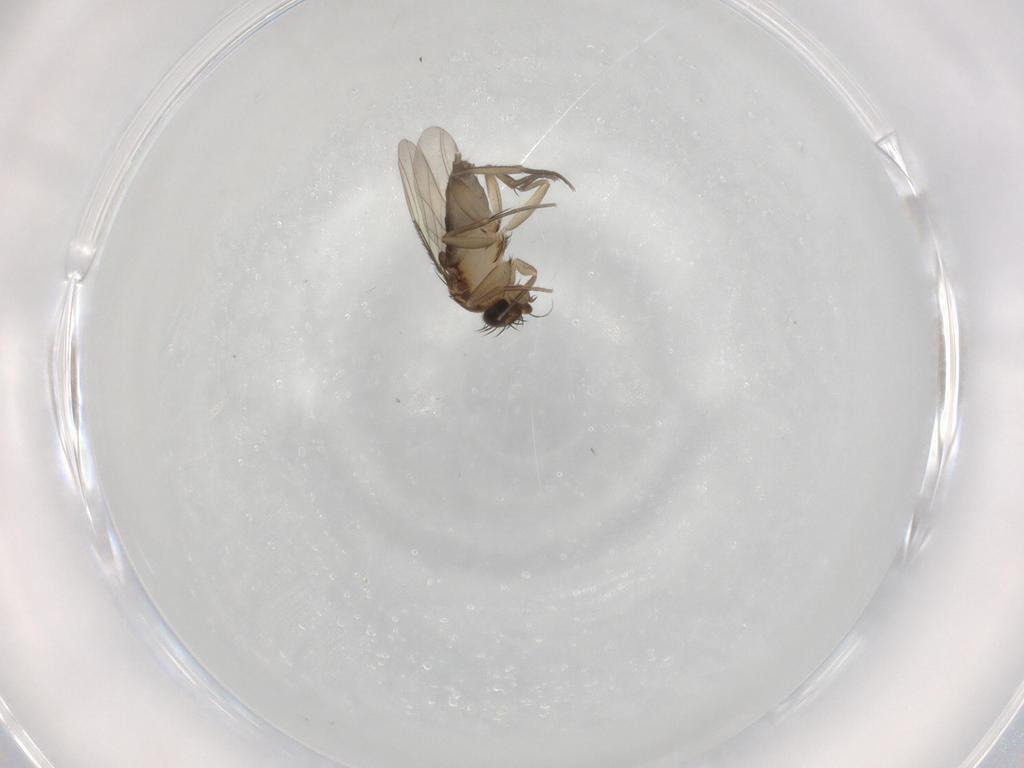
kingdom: Animalia
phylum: Arthropoda
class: Insecta
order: Diptera
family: Phoridae
